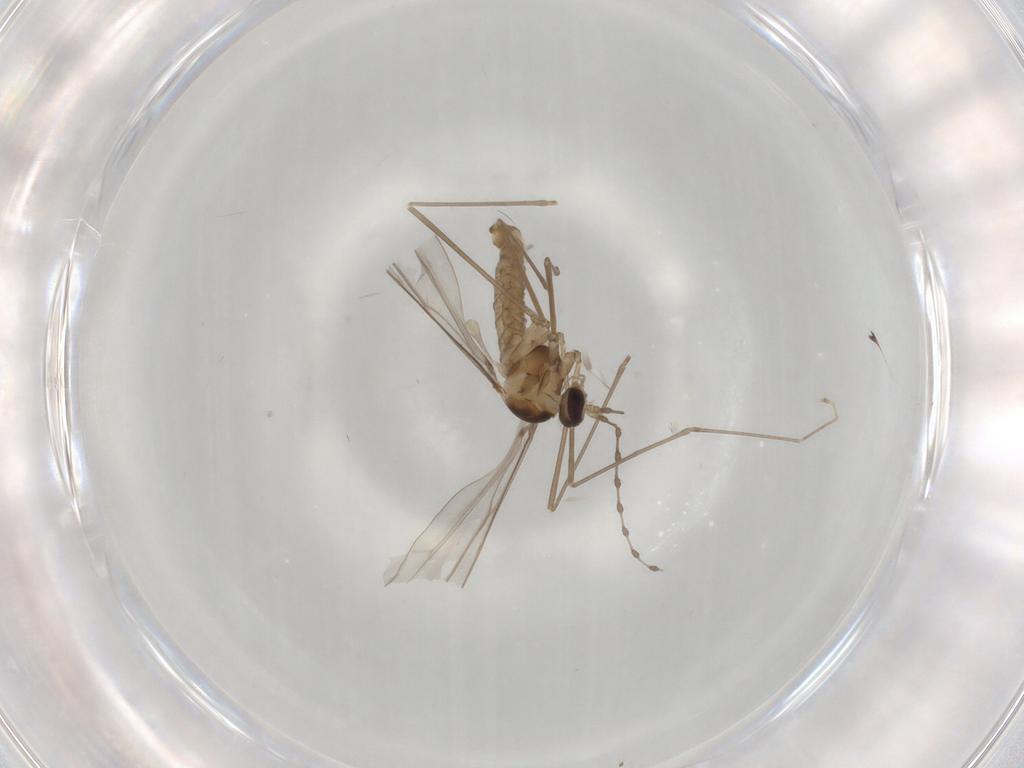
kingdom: Animalia
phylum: Arthropoda
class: Insecta
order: Diptera
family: Cecidomyiidae
